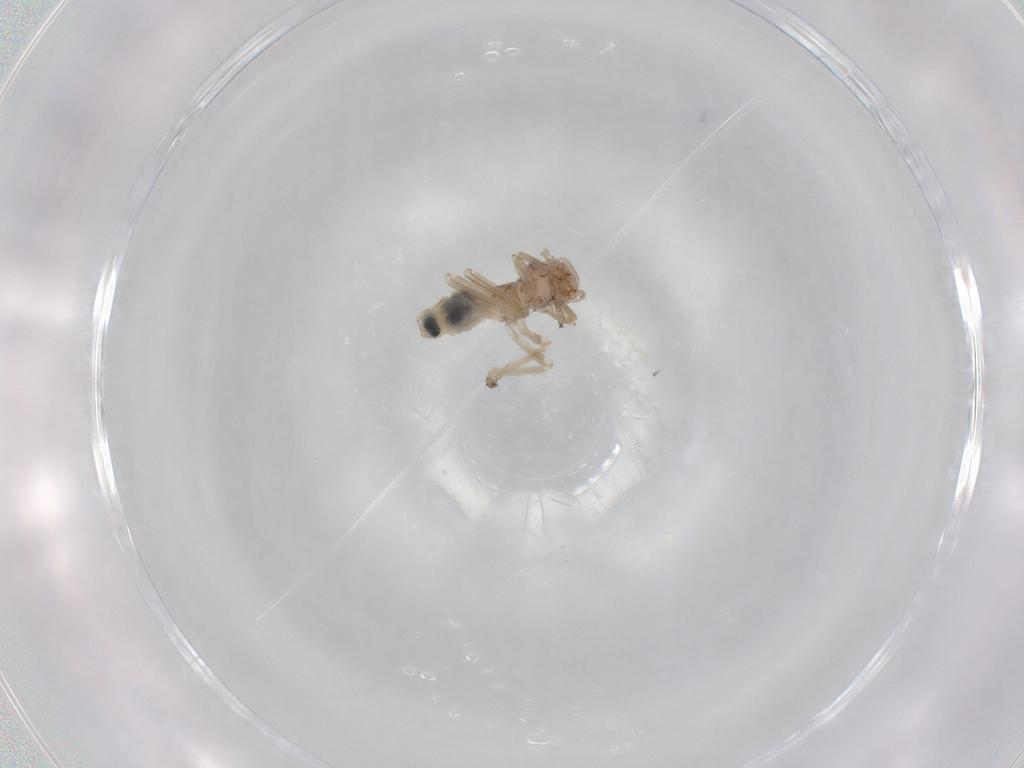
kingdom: Animalia
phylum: Arthropoda
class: Insecta
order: Psocodea
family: Stenopsocidae
